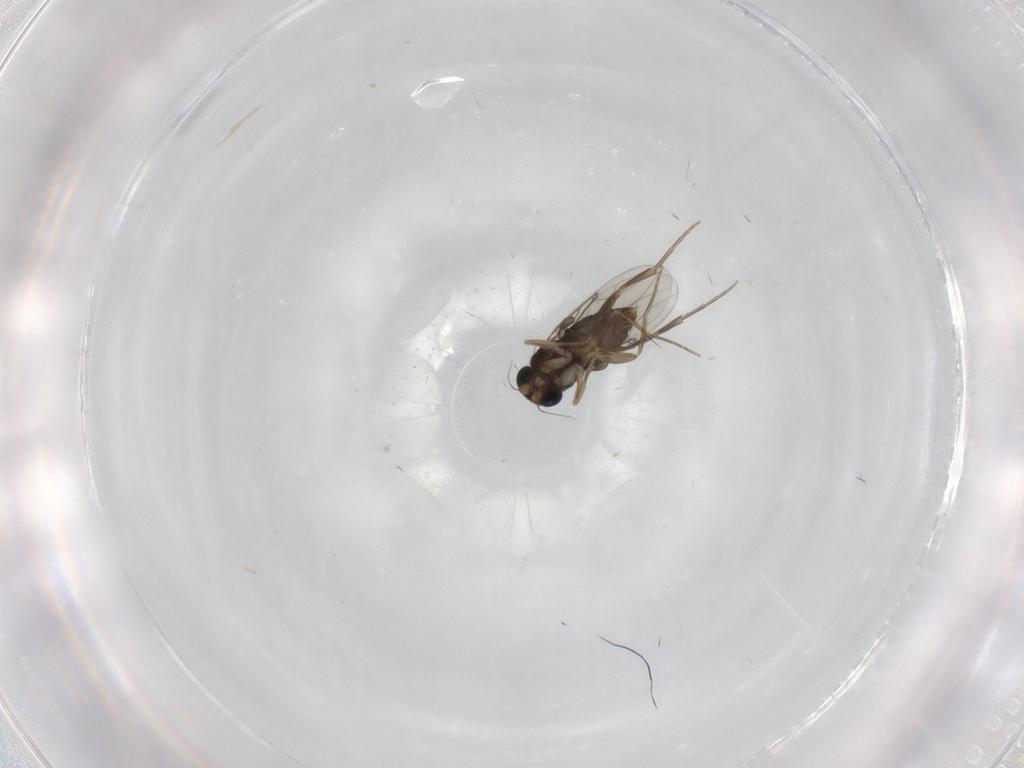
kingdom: Animalia
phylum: Arthropoda
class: Insecta
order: Diptera
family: Phoridae
